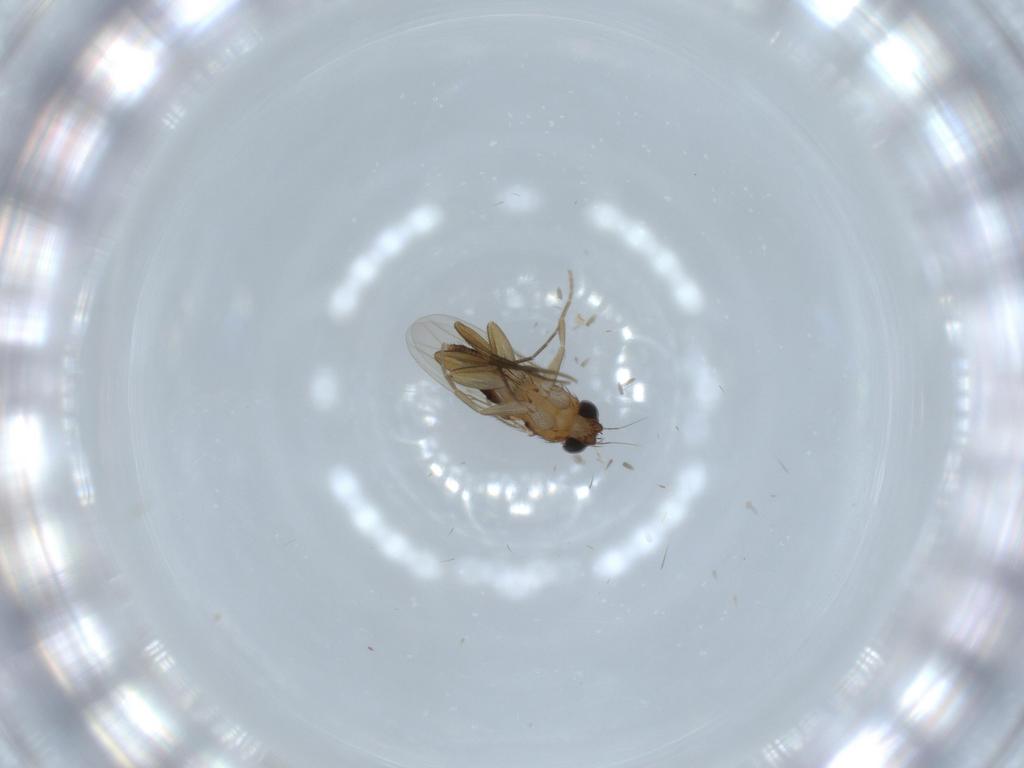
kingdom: Animalia
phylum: Arthropoda
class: Insecta
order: Diptera
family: Phoridae
